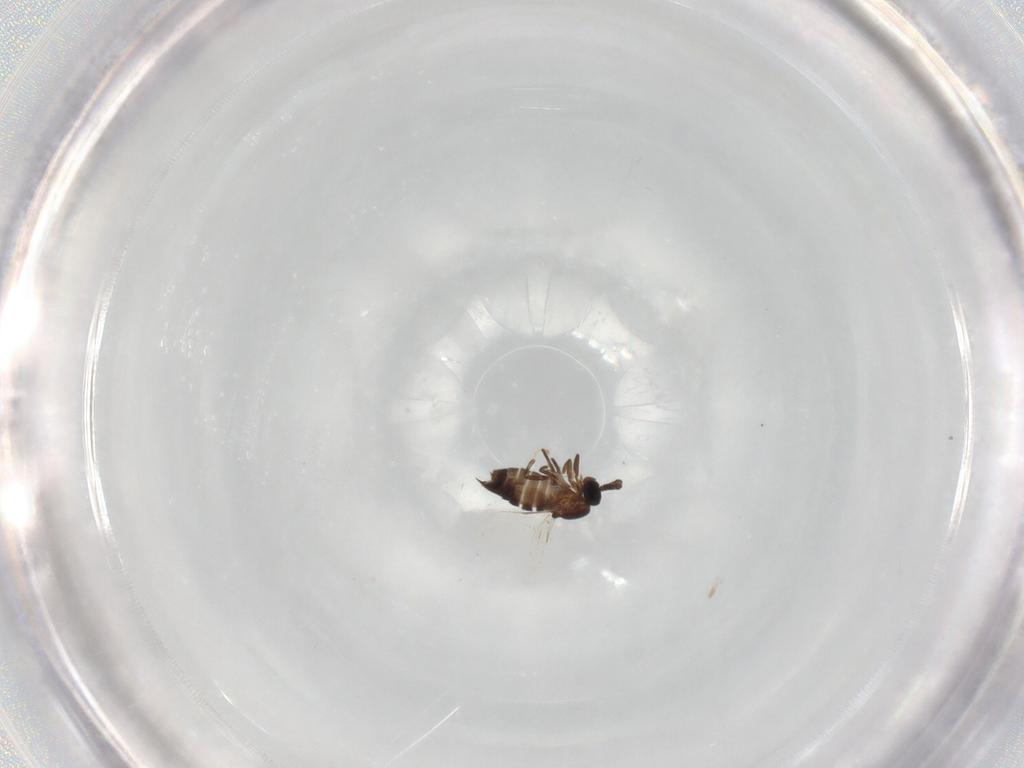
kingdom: Animalia
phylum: Arthropoda
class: Insecta
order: Diptera
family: Scatopsidae
